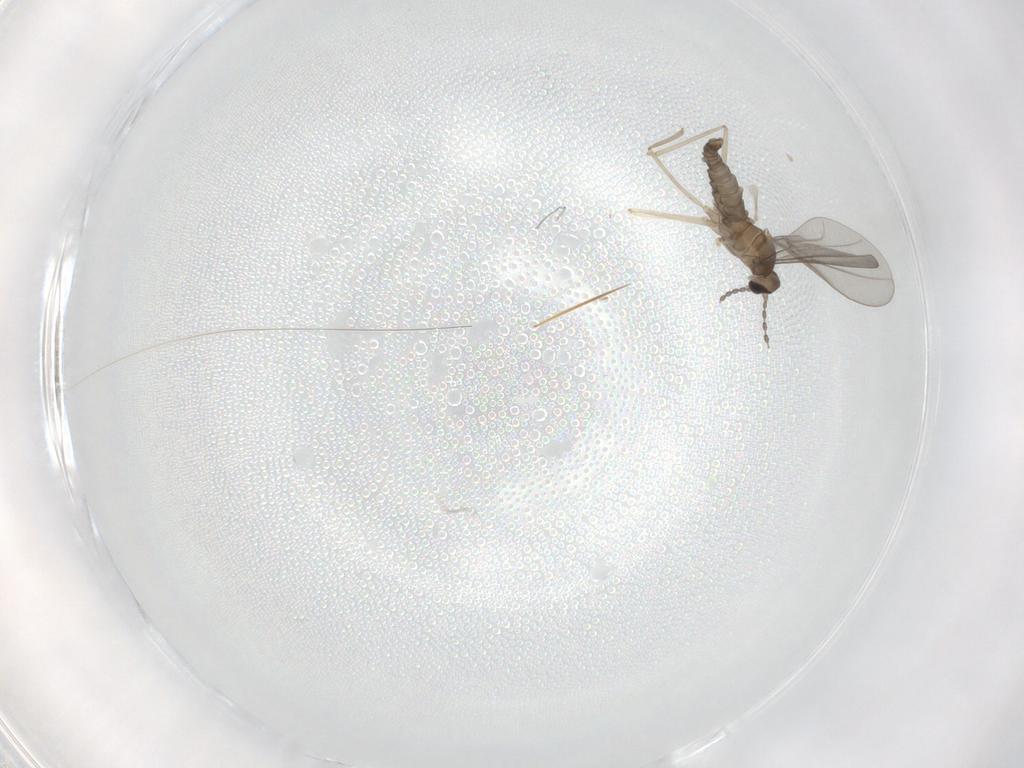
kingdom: Animalia
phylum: Arthropoda
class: Insecta
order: Diptera
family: Cecidomyiidae
